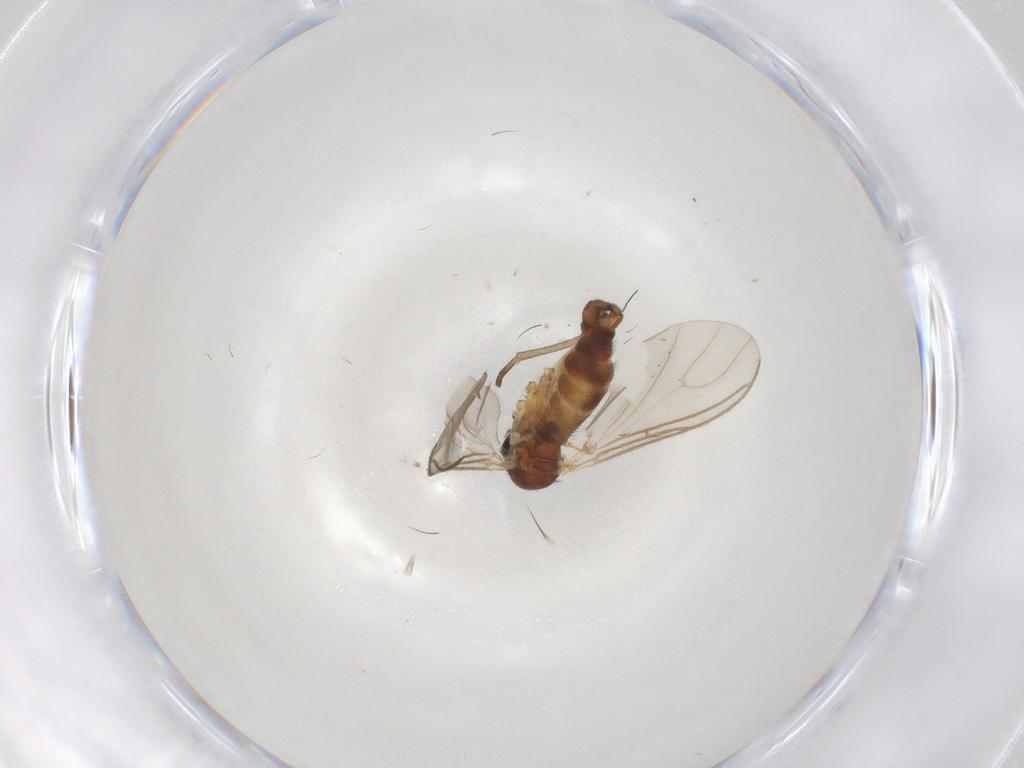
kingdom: Animalia
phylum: Arthropoda
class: Insecta
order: Diptera
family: Bombyliidae
